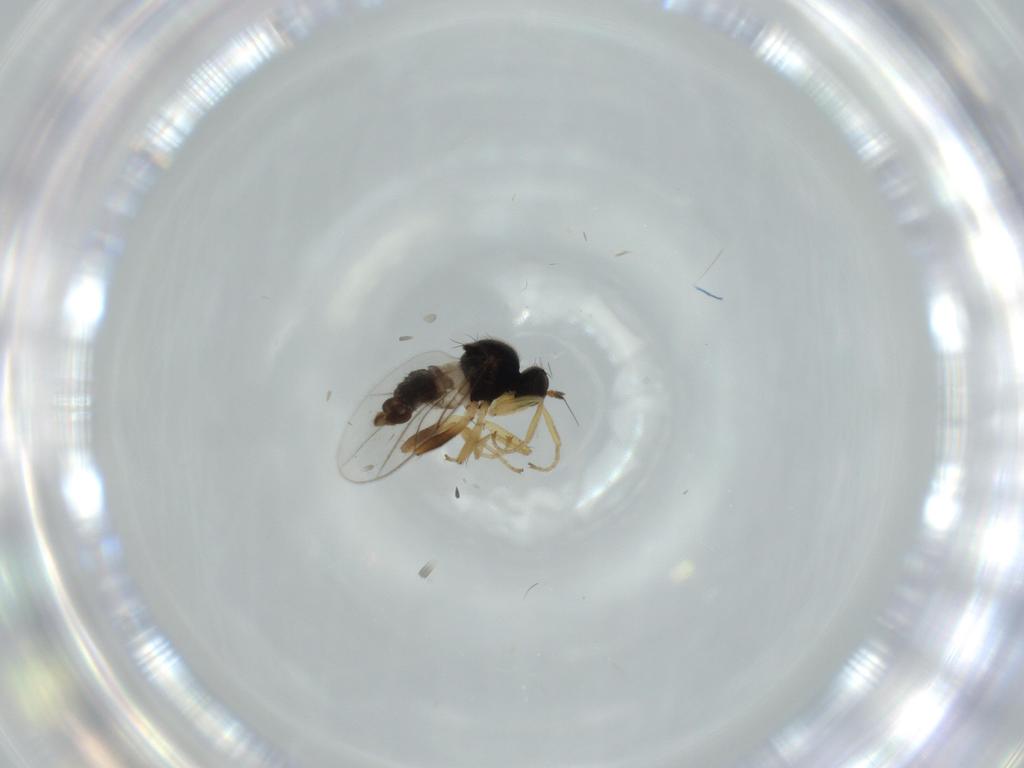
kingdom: Animalia
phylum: Arthropoda
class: Insecta
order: Diptera
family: Hybotidae
